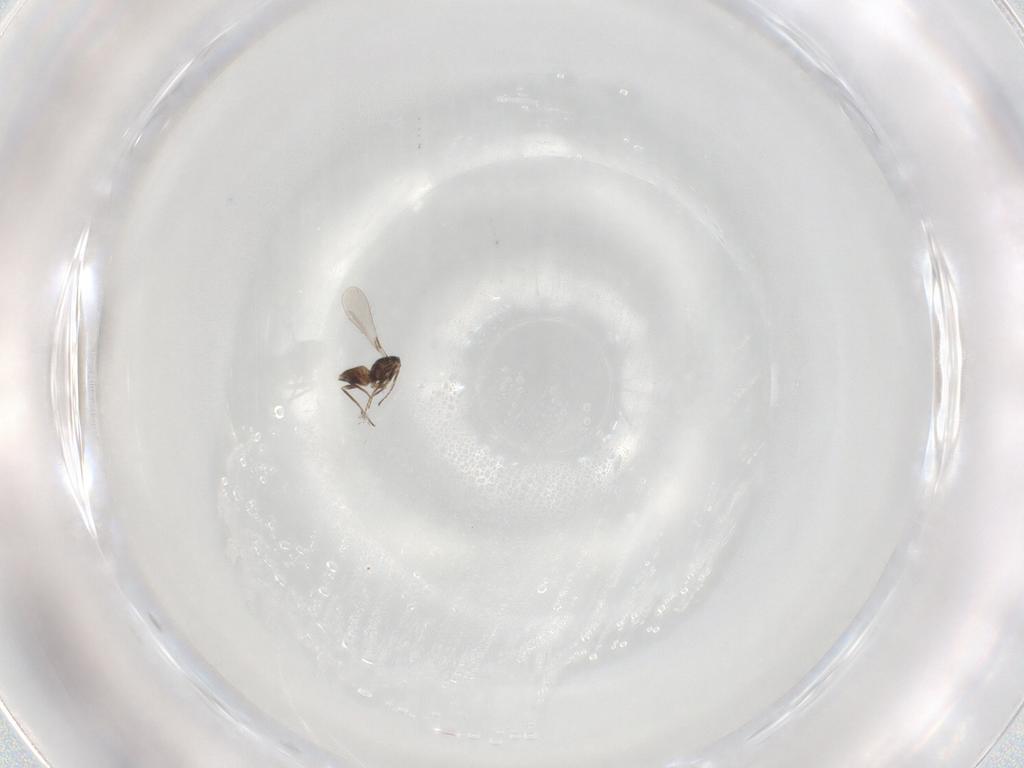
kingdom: Animalia
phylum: Arthropoda
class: Insecta
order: Hymenoptera
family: Mymaridae
